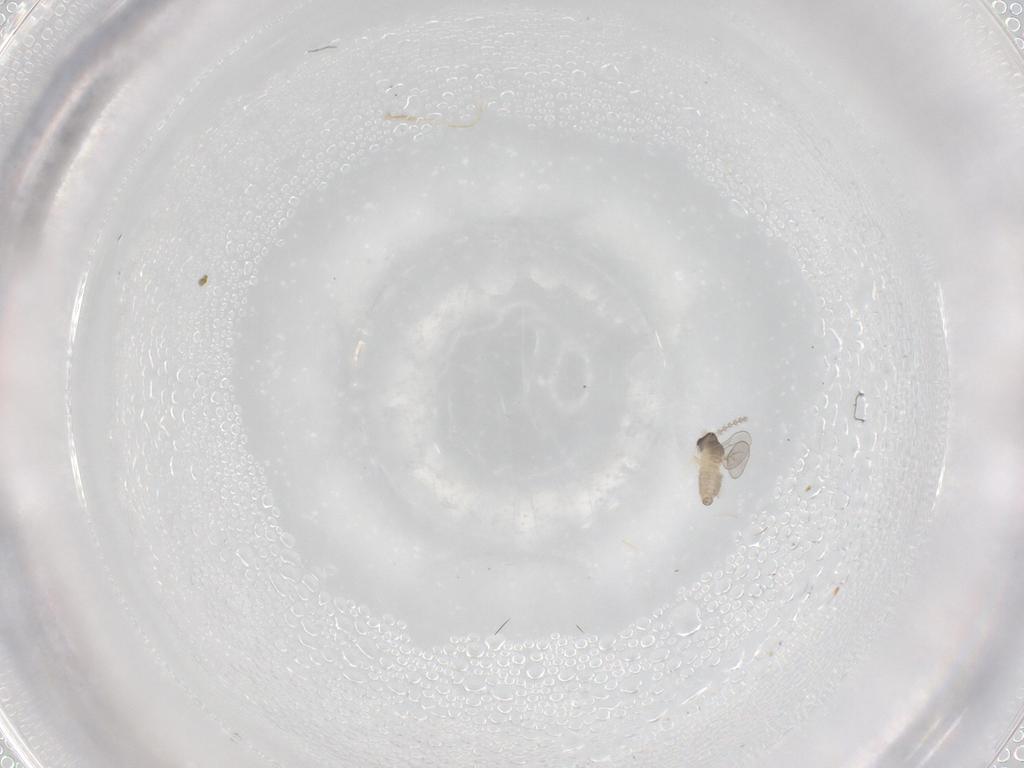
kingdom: Animalia
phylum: Arthropoda
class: Insecta
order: Diptera
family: Cecidomyiidae
